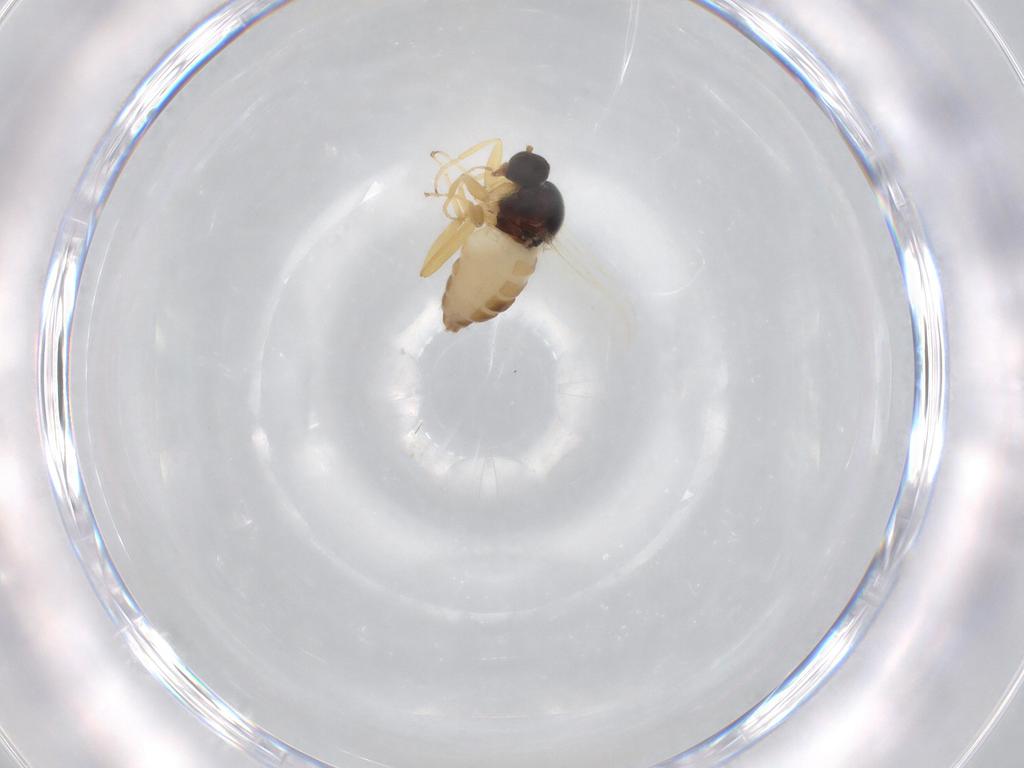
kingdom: Animalia
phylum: Arthropoda
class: Insecta
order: Diptera
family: Hybotidae
